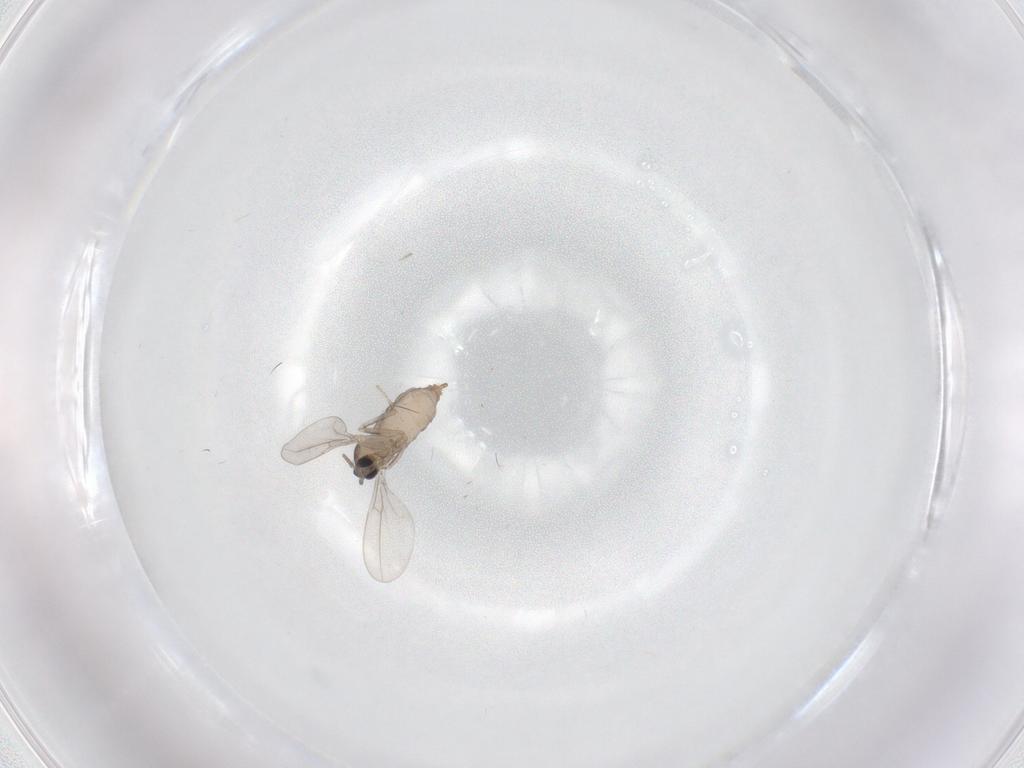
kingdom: Animalia
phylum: Arthropoda
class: Insecta
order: Diptera
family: Cecidomyiidae
